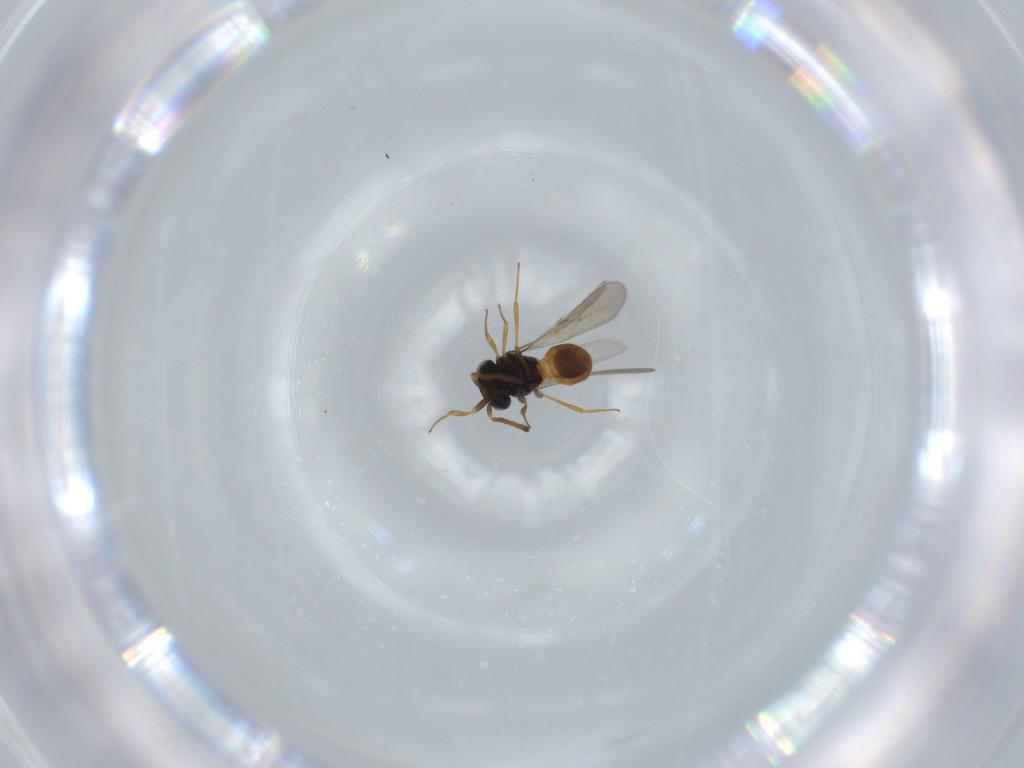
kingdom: Animalia
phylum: Arthropoda
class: Insecta
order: Hymenoptera
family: Scelionidae
